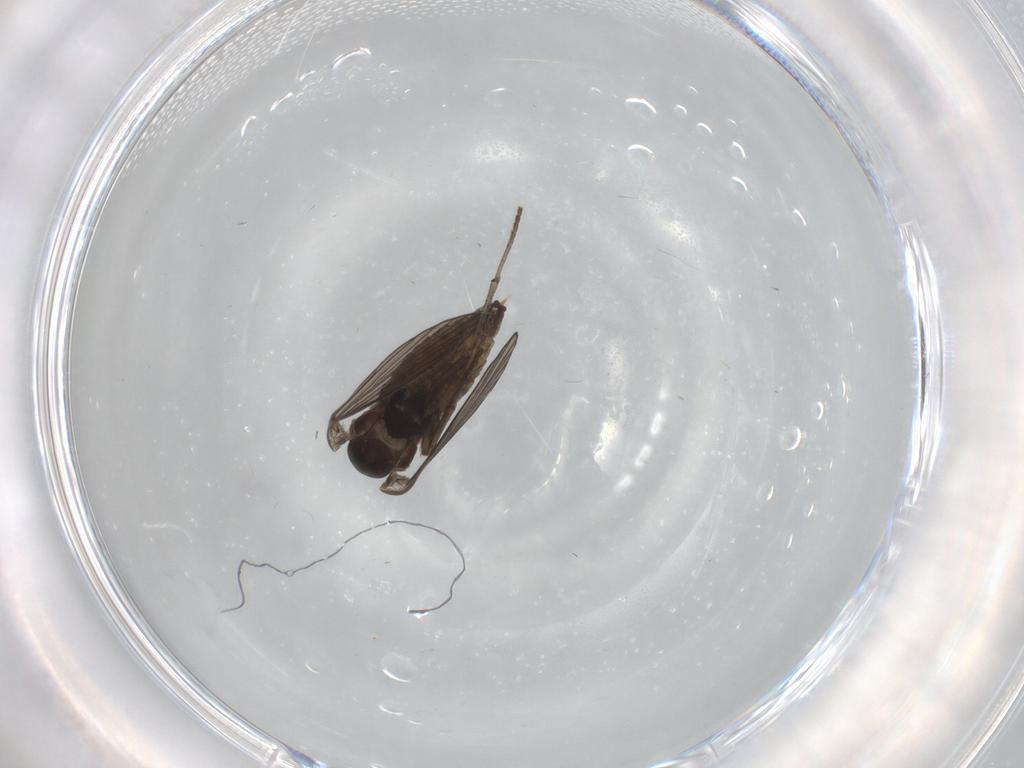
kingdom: Animalia
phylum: Arthropoda
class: Insecta
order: Diptera
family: Psychodidae
